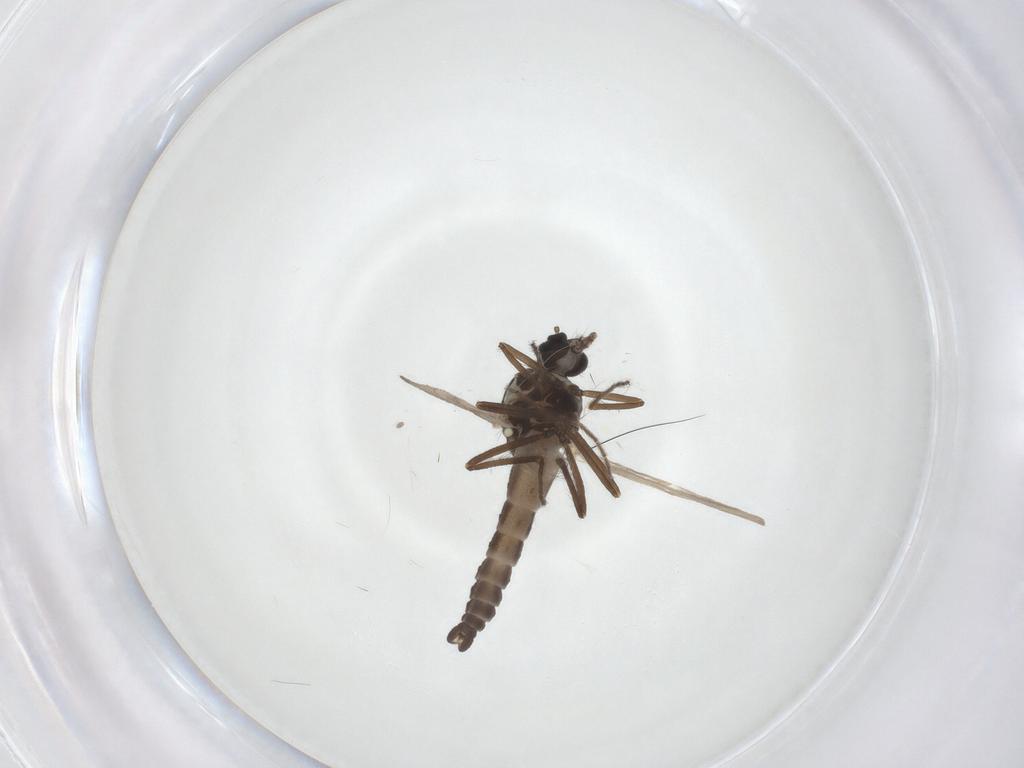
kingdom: Animalia
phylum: Arthropoda
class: Insecta
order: Diptera
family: Ceratopogonidae
